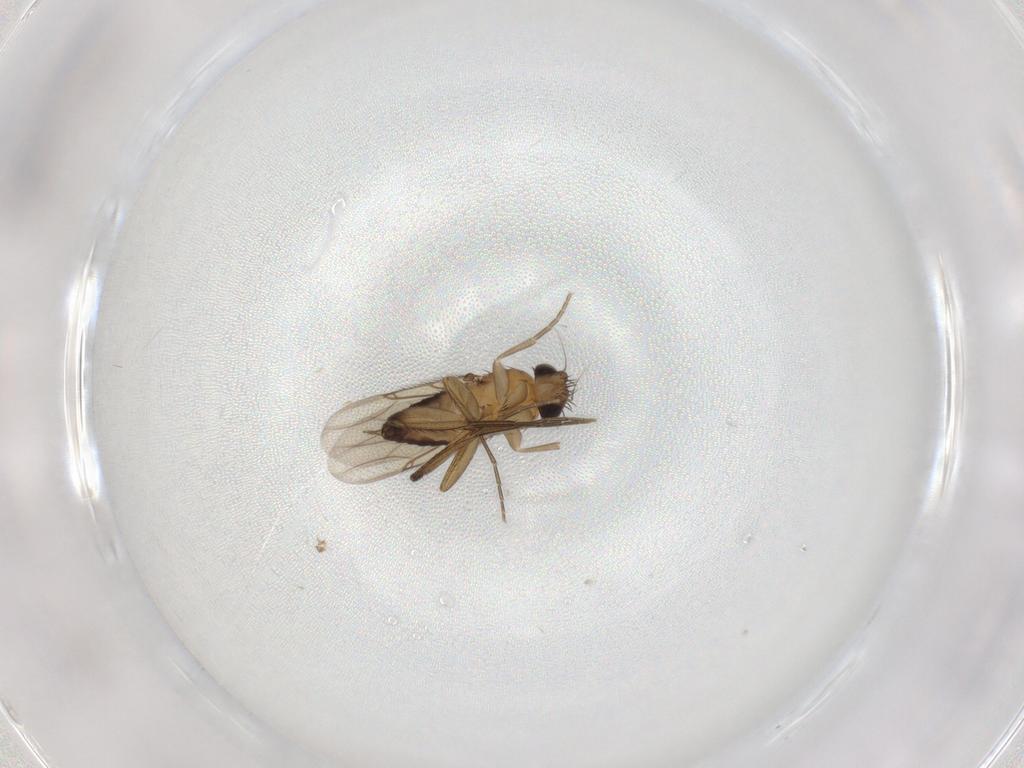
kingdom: Animalia
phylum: Arthropoda
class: Insecta
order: Diptera
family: Phoridae
